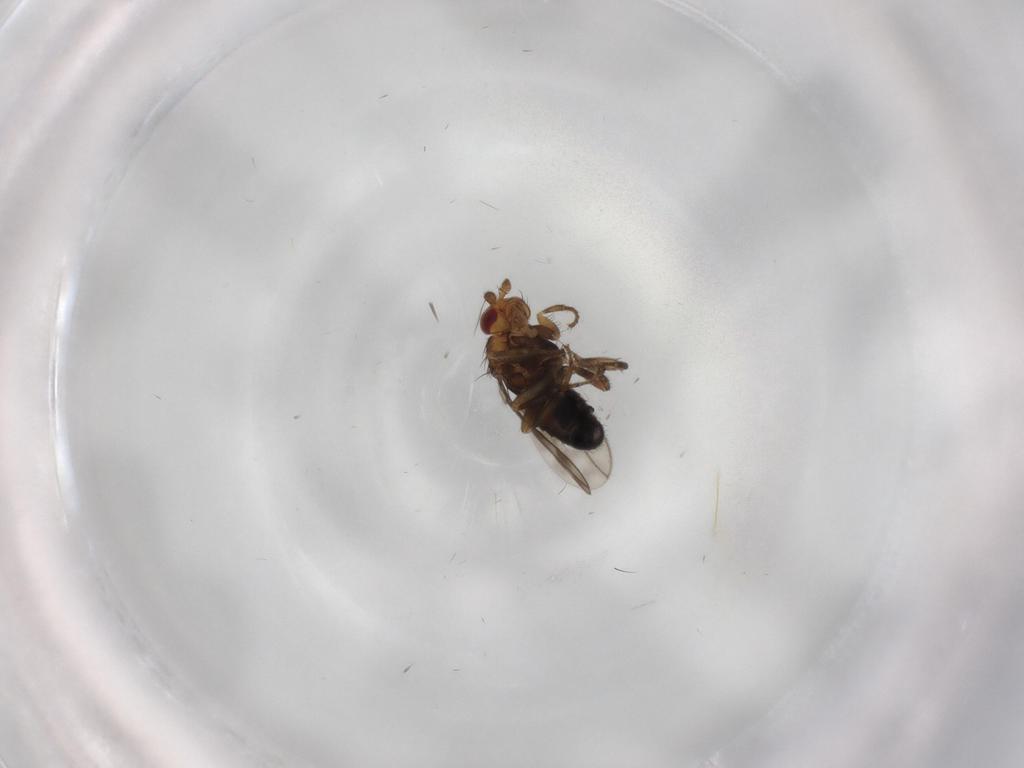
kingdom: Animalia
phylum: Arthropoda
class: Insecta
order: Diptera
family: Sphaeroceridae
